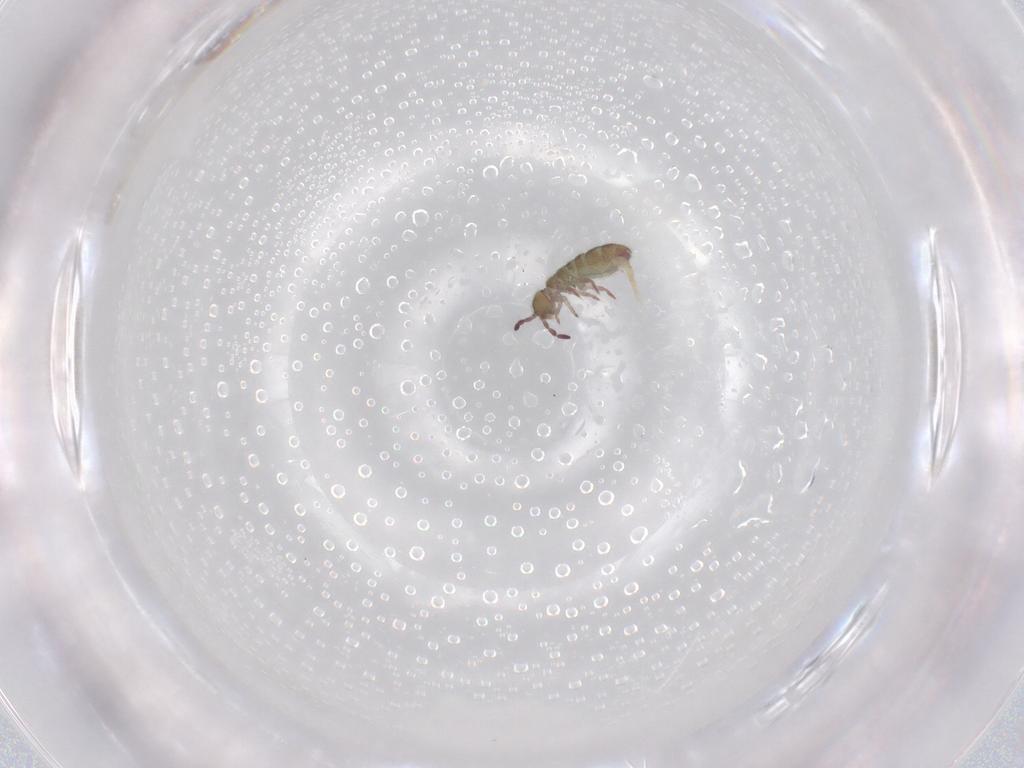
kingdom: Animalia
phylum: Arthropoda
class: Collembola
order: Entomobryomorpha
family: Isotomidae
